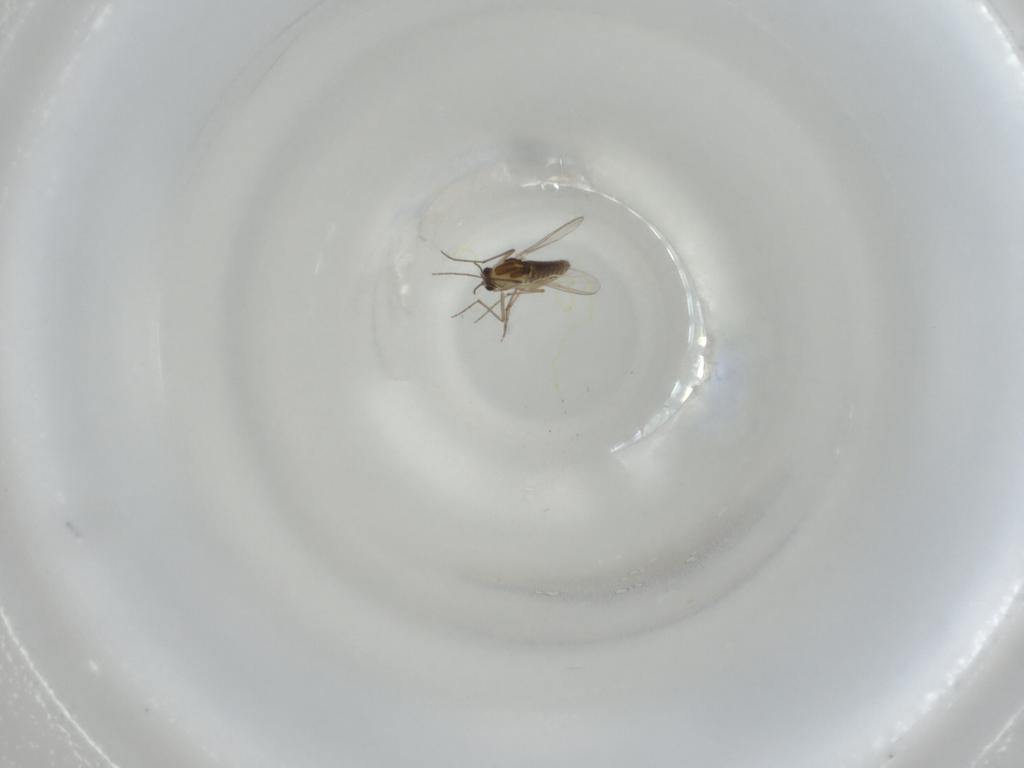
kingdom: Animalia
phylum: Arthropoda
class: Insecta
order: Diptera
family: Chironomidae
